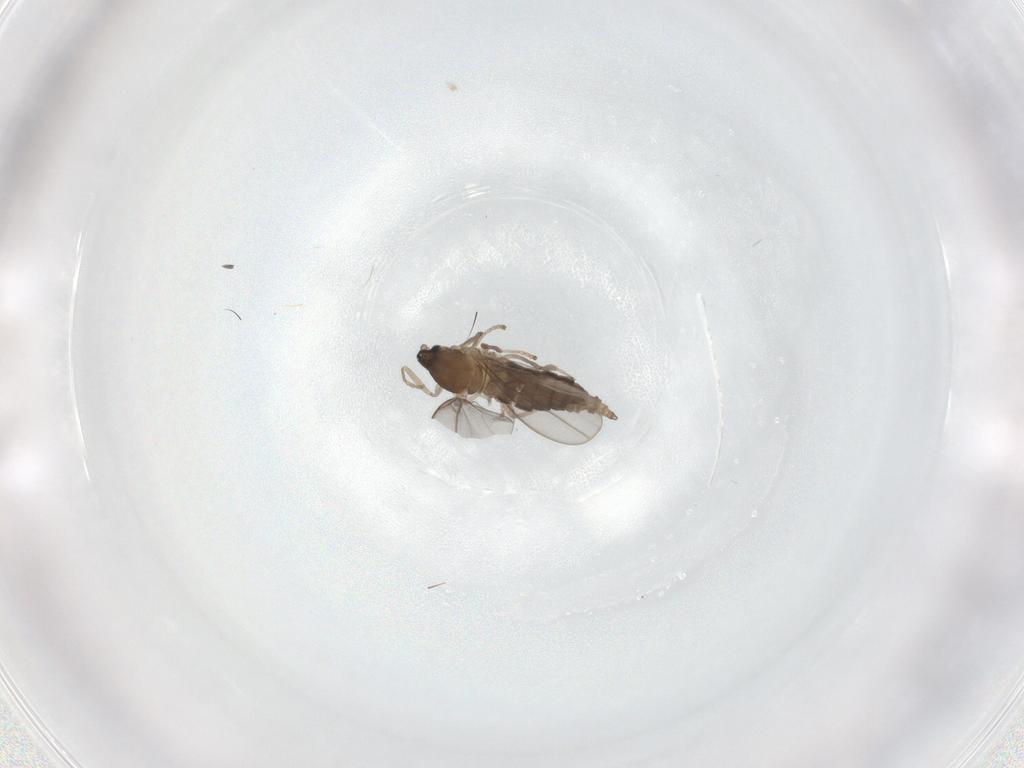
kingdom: Animalia
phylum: Arthropoda
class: Insecta
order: Diptera
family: Cecidomyiidae
